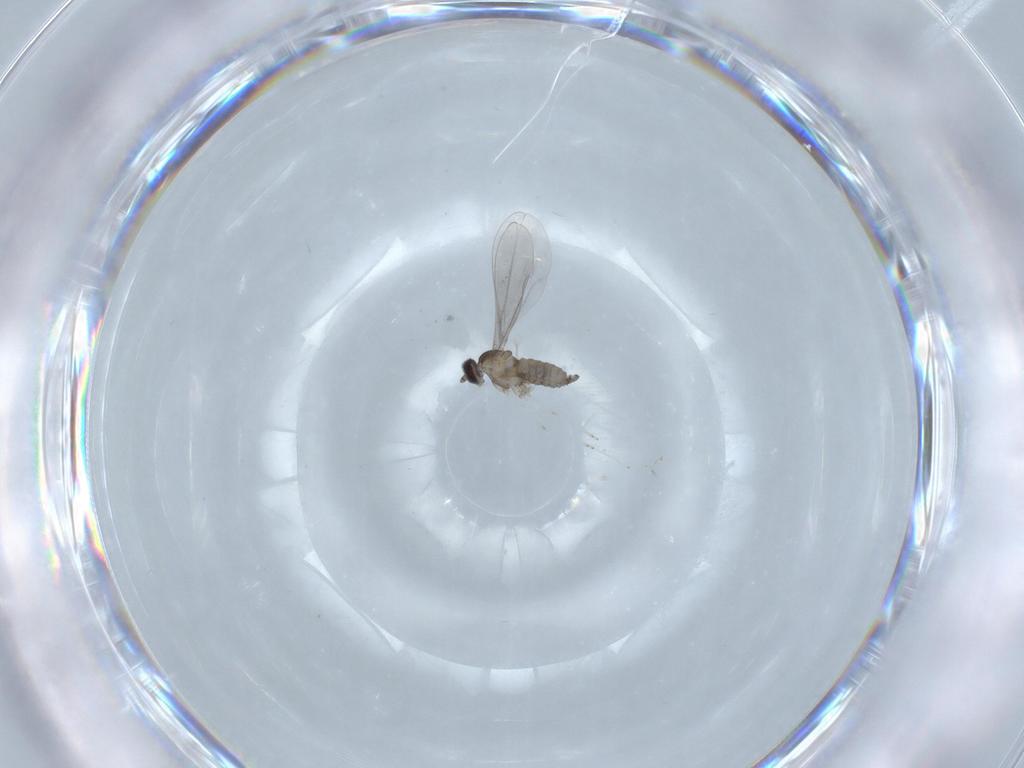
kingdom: Animalia
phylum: Arthropoda
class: Insecta
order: Diptera
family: Cecidomyiidae
